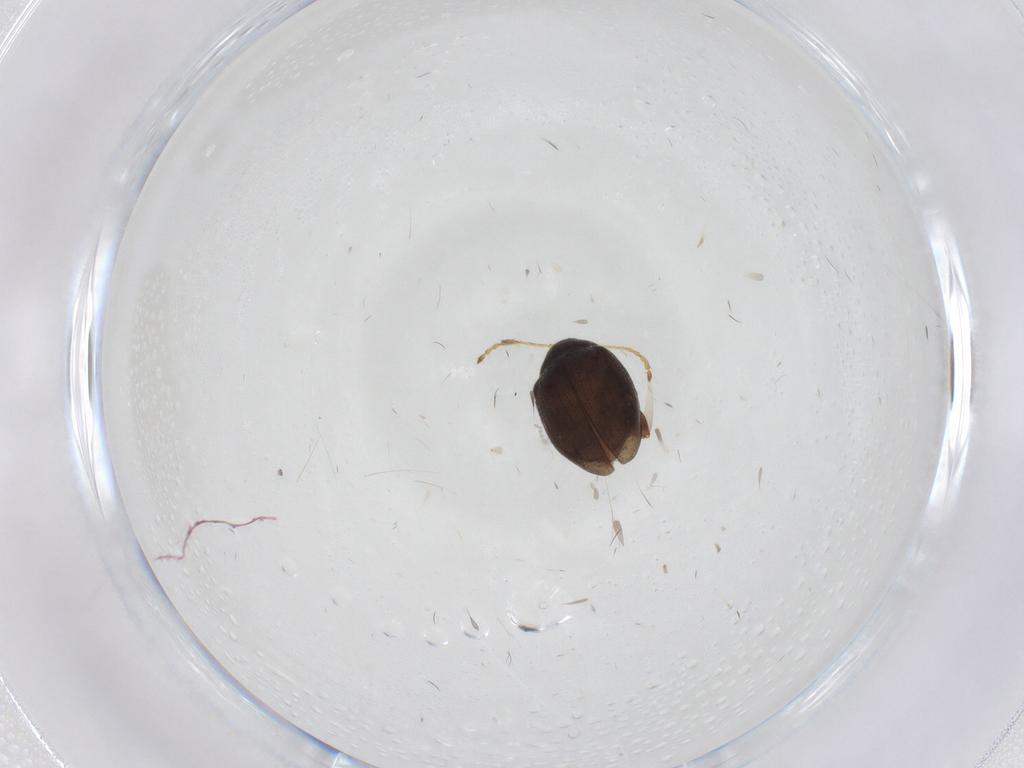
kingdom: Animalia
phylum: Arthropoda
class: Insecta
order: Coleoptera
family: Chrysomelidae
